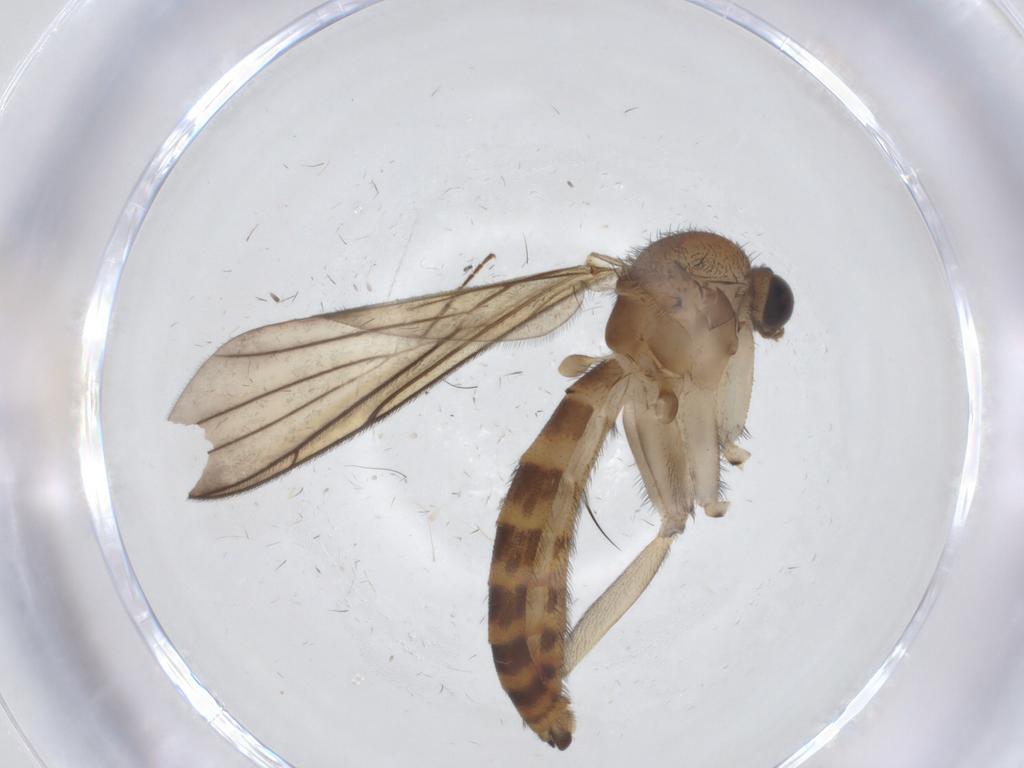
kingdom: Animalia
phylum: Arthropoda
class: Insecta
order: Diptera
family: Keroplatidae
